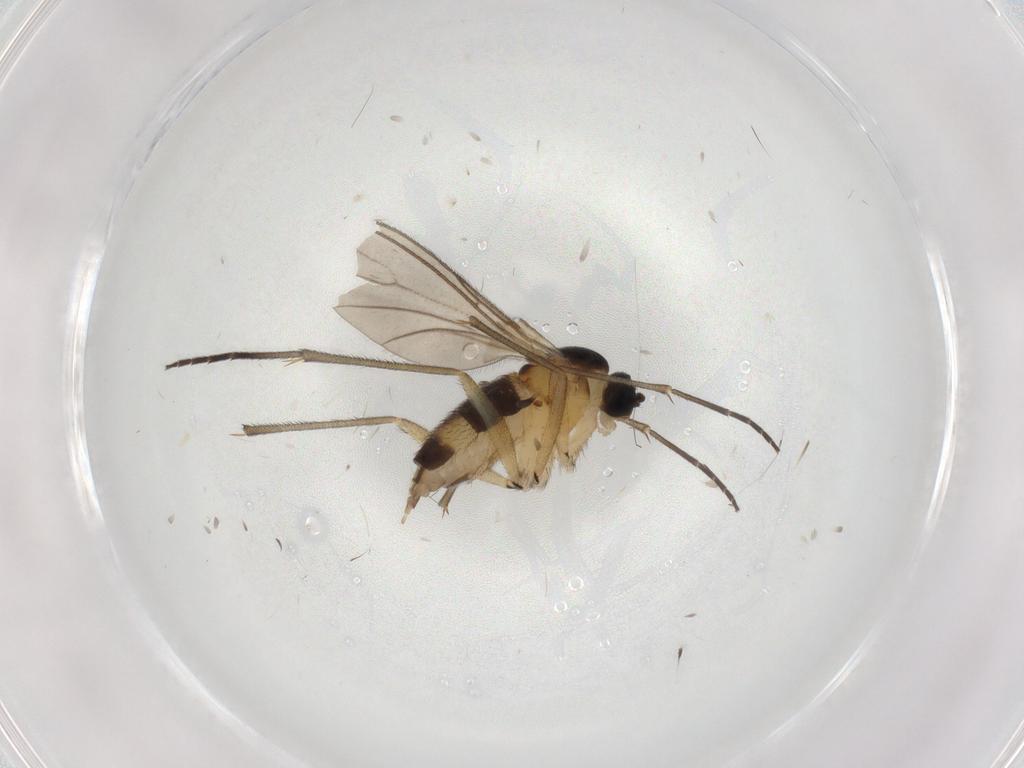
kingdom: Animalia
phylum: Arthropoda
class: Insecta
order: Diptera
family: Sciaridae
